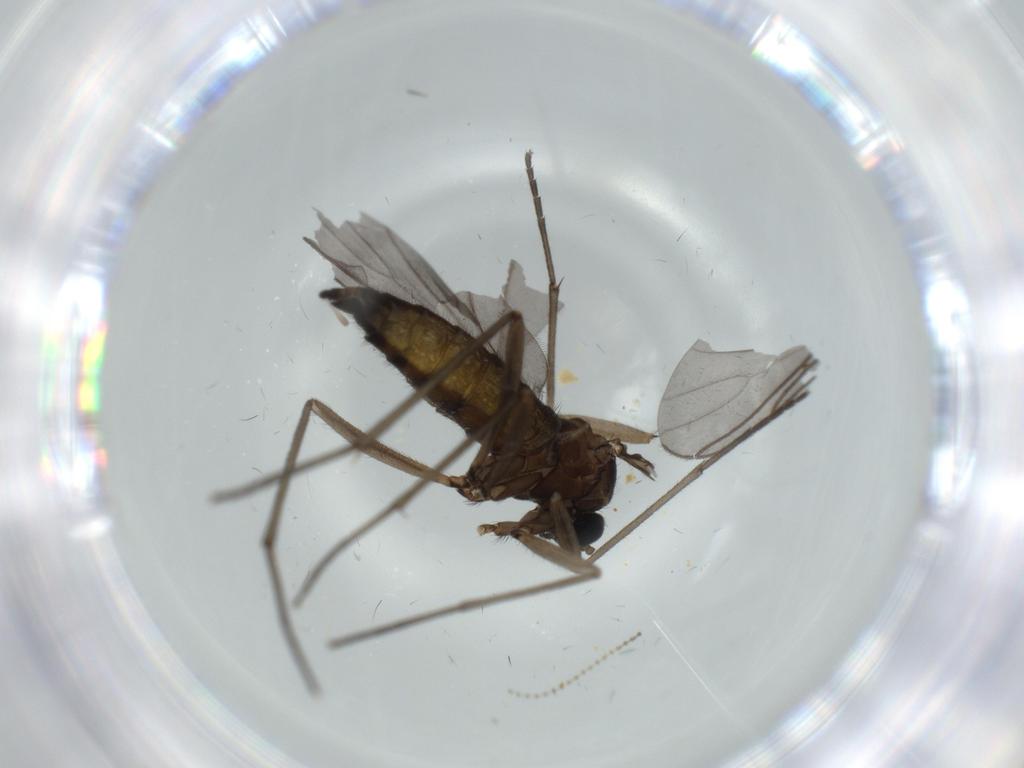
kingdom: Animalia
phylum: Arthropoda
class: Insecta
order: Diptera
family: Sciaridae
